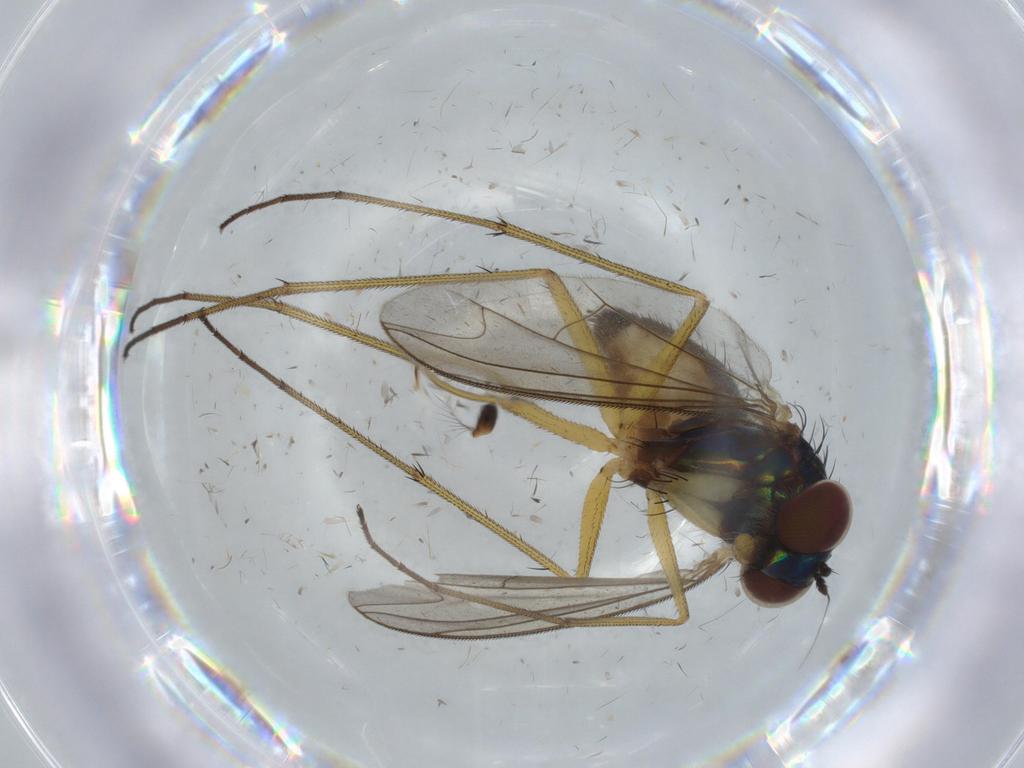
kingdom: Animalia
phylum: Arthropoda
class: Insecta
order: Diptera
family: Dolichopodidae
